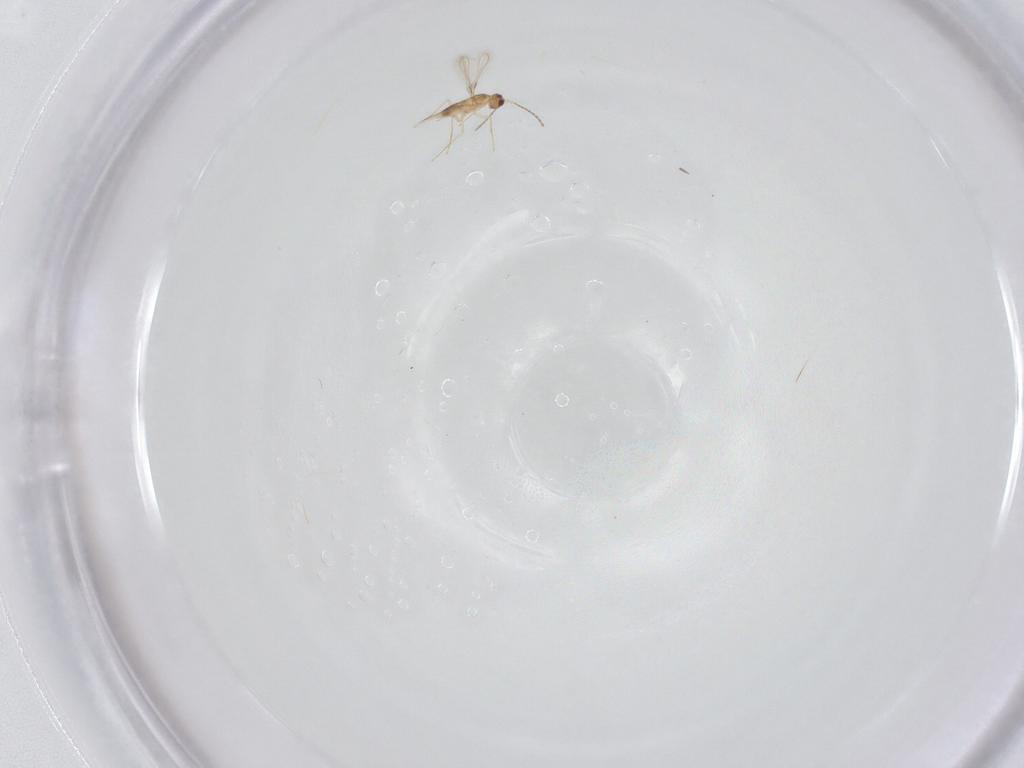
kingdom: Animalia
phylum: Arthropoda
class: Insecta
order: Hymenoptera
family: Mymaridae
